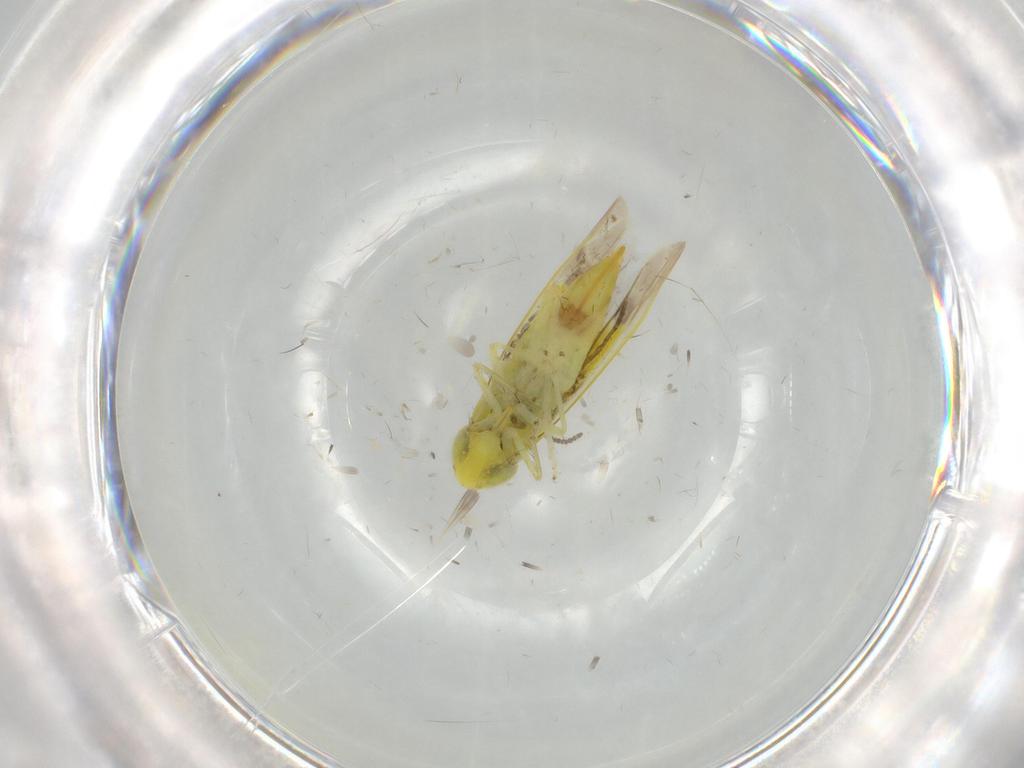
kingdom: Animalia
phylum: Arthropoda
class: Insecta
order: Hemiptera
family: Cicadellidae
